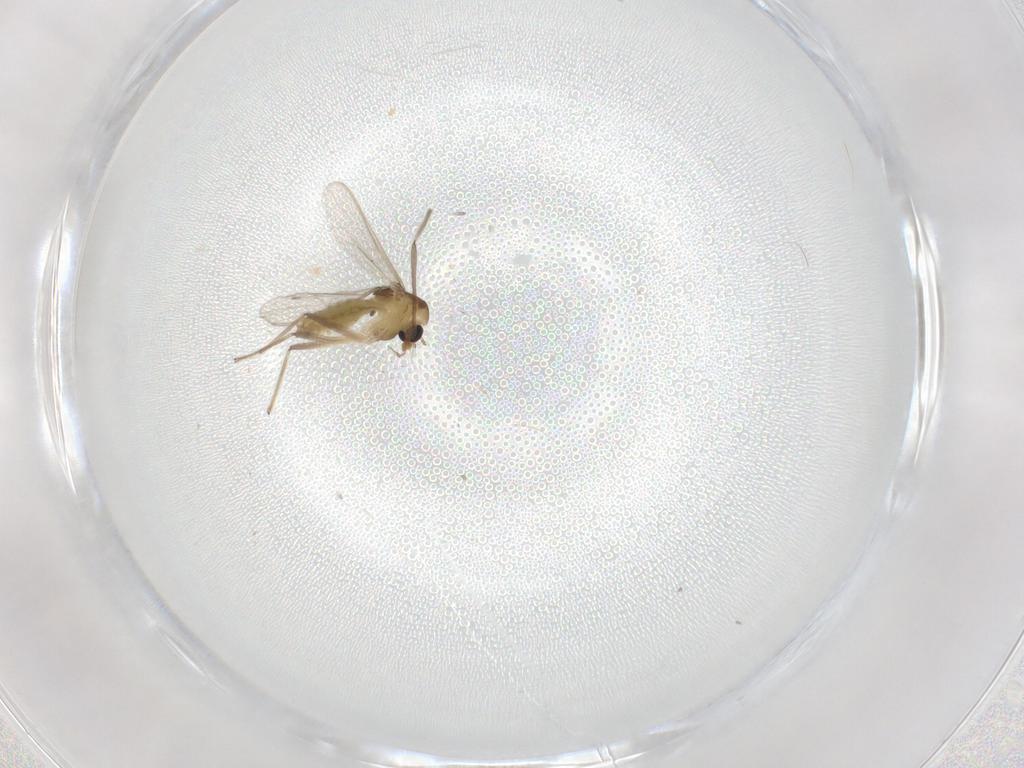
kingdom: Animalia
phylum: Arthropoda
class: Insecta
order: Diptera
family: Chironomidae
